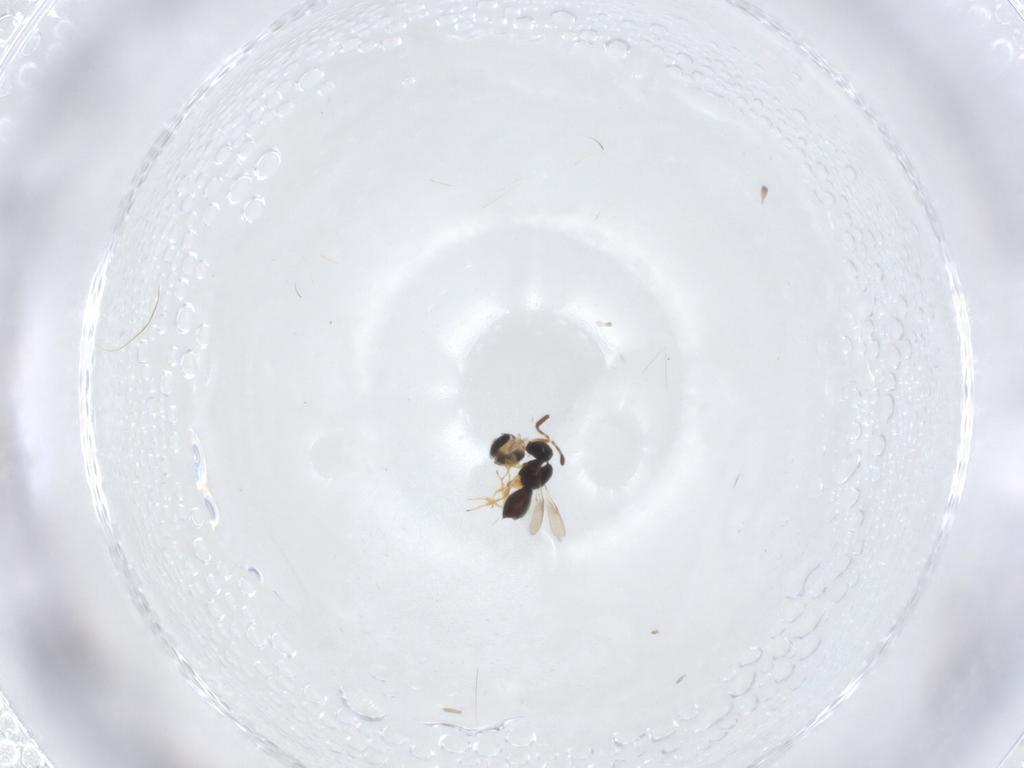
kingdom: Animalia
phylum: Arthropoda
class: Insecta
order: Hymenoptera
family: Scelionidae
